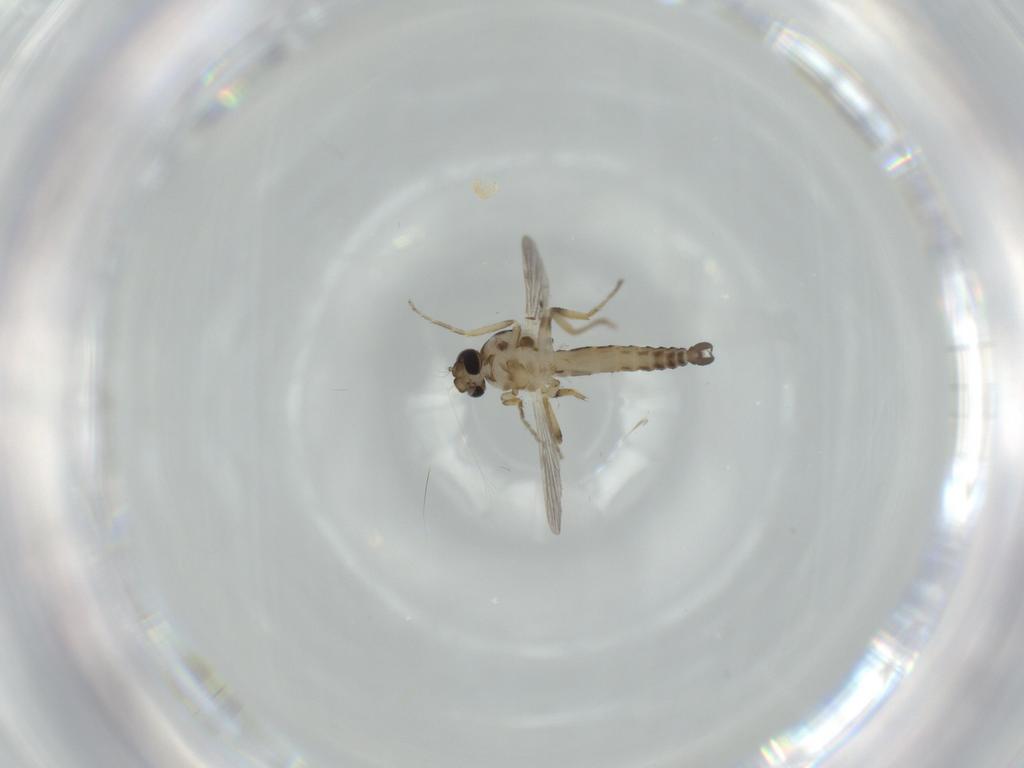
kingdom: Animalia
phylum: Arthropoda
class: Insecta
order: Diptera
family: Ceratopogonidae
